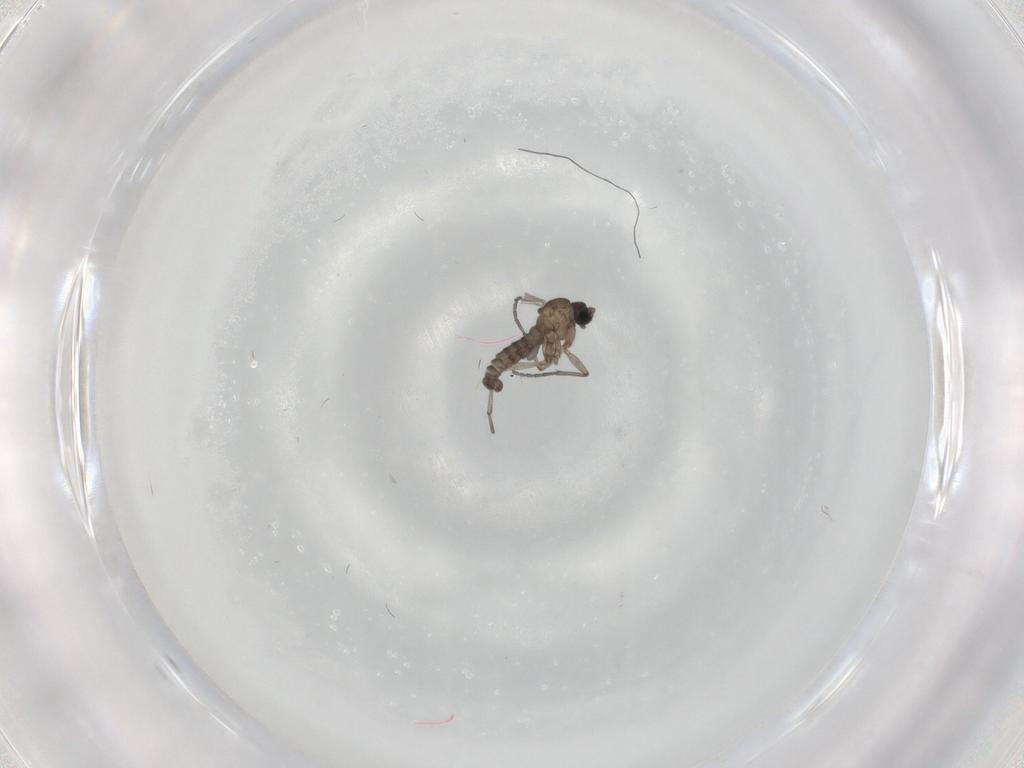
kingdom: Animalia
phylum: Arthropoda
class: Insecta
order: Diptera
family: Sciaridae
